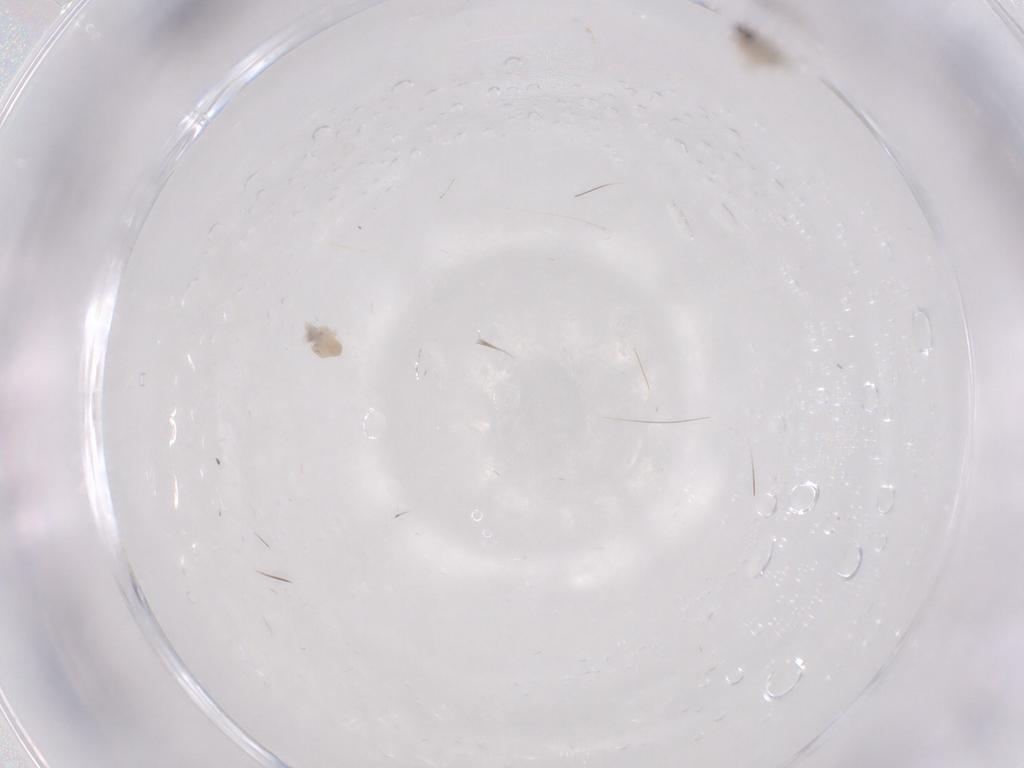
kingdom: Animalia
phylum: Arthropoda
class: Insecta
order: Diptera
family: Cecidomyiidae
